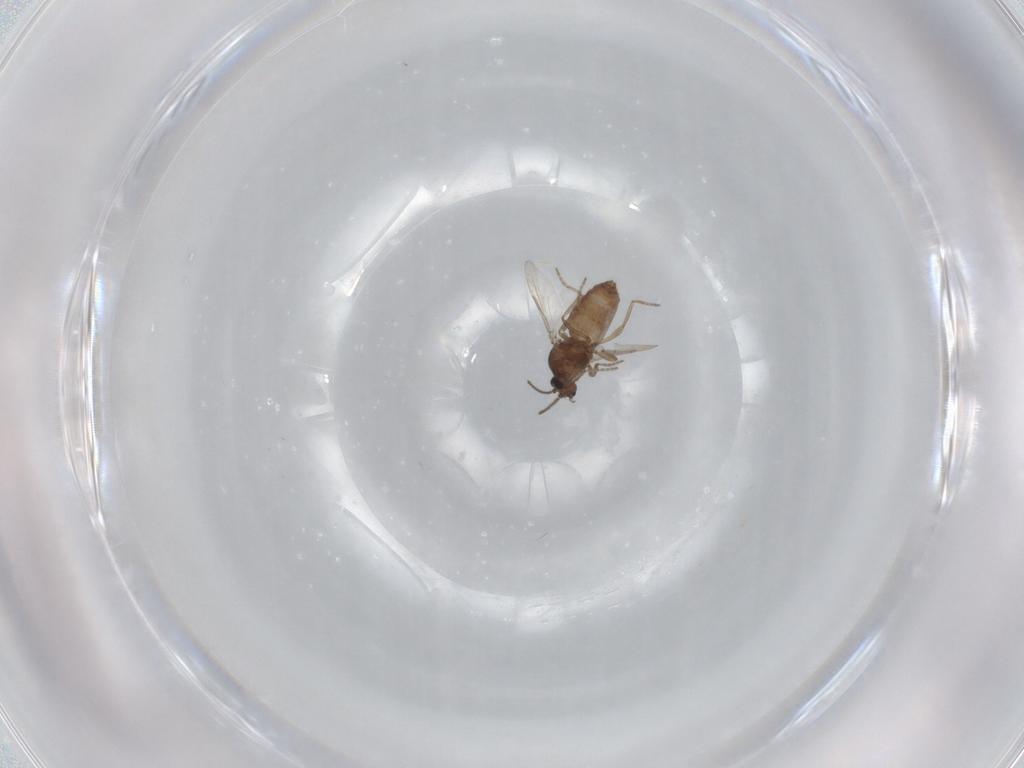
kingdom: Animalia
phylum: Arthropoda
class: Insecta
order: Diptera
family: Ceratopogonidae
